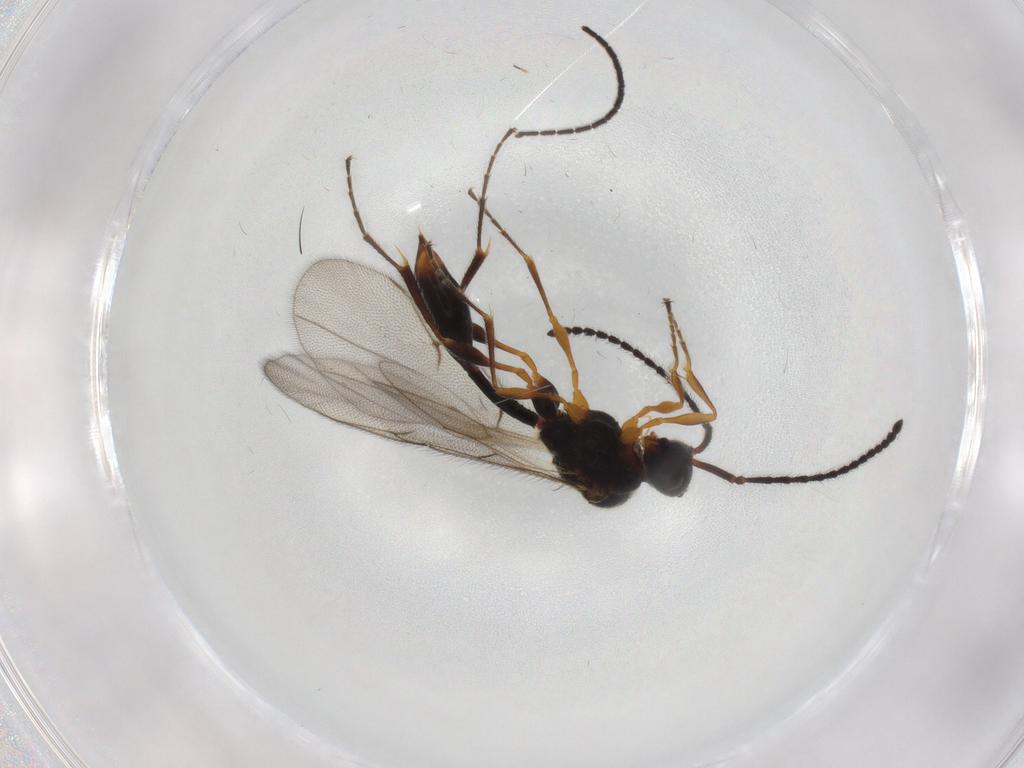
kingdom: Animalia
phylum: Arthropoda
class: Insecta
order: Hymenoptera
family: Diapriidae
